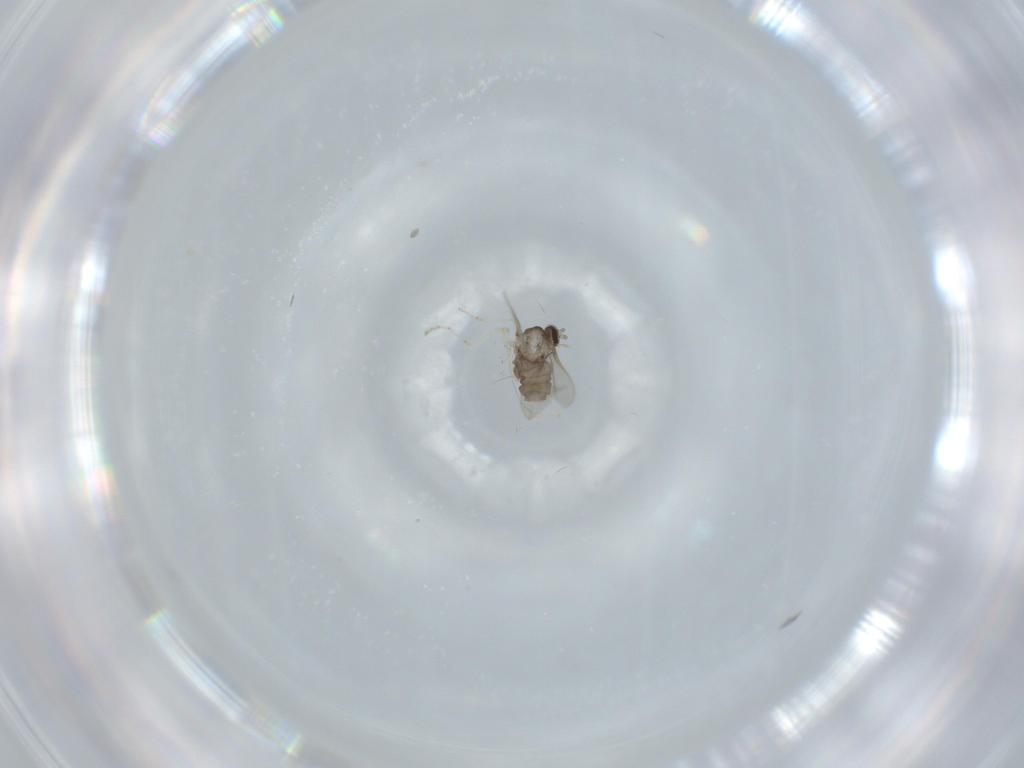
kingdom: Animalia
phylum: Arthropoda
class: Insecta
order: Diptera
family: Cecidomyiidae
